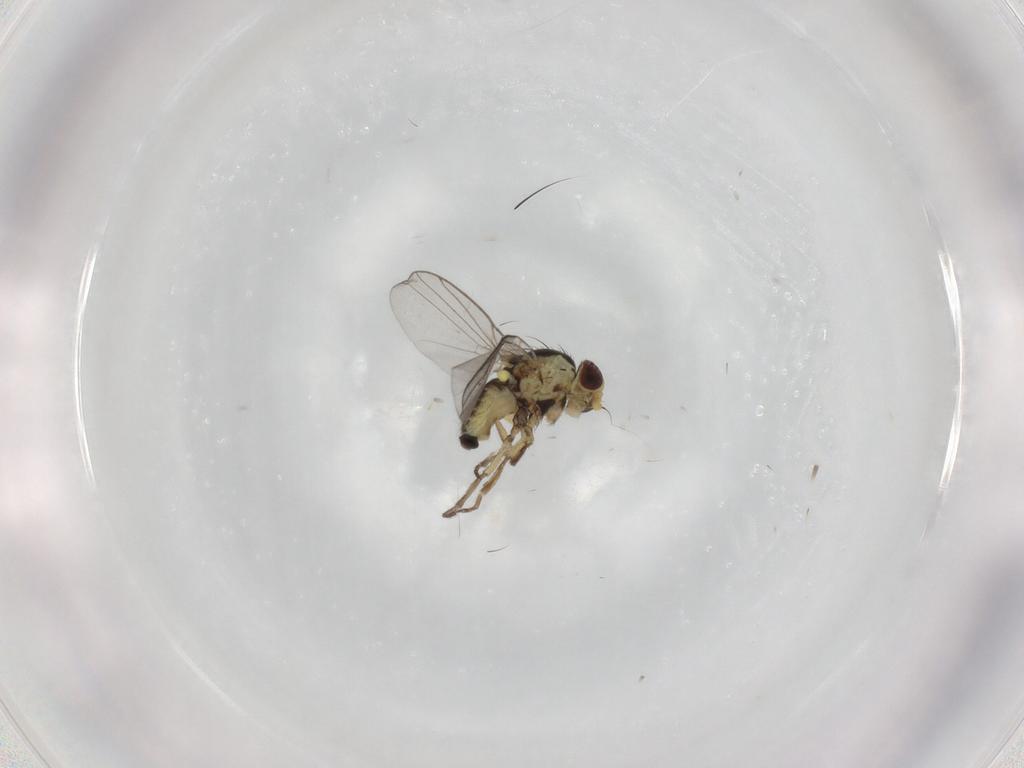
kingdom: Animalia
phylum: Arthropoda
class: Insecta
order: Diptera
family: Agromyzidae
